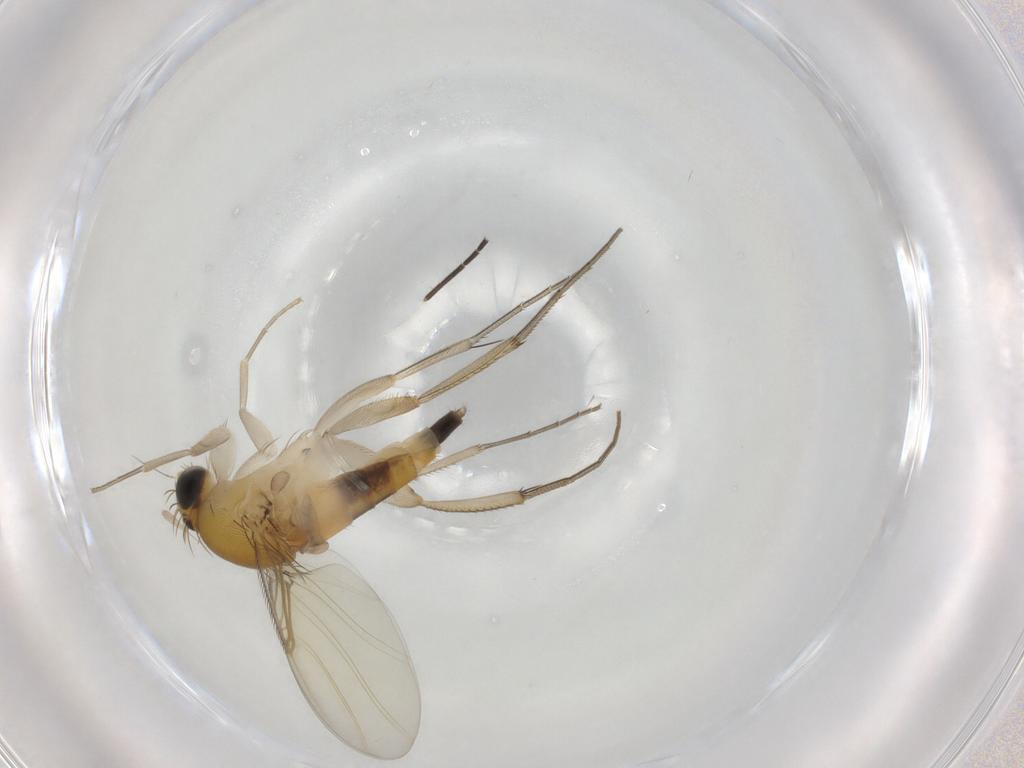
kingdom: Animalia
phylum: Arthropoda
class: Insecta
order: Diptera
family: Phoridae
